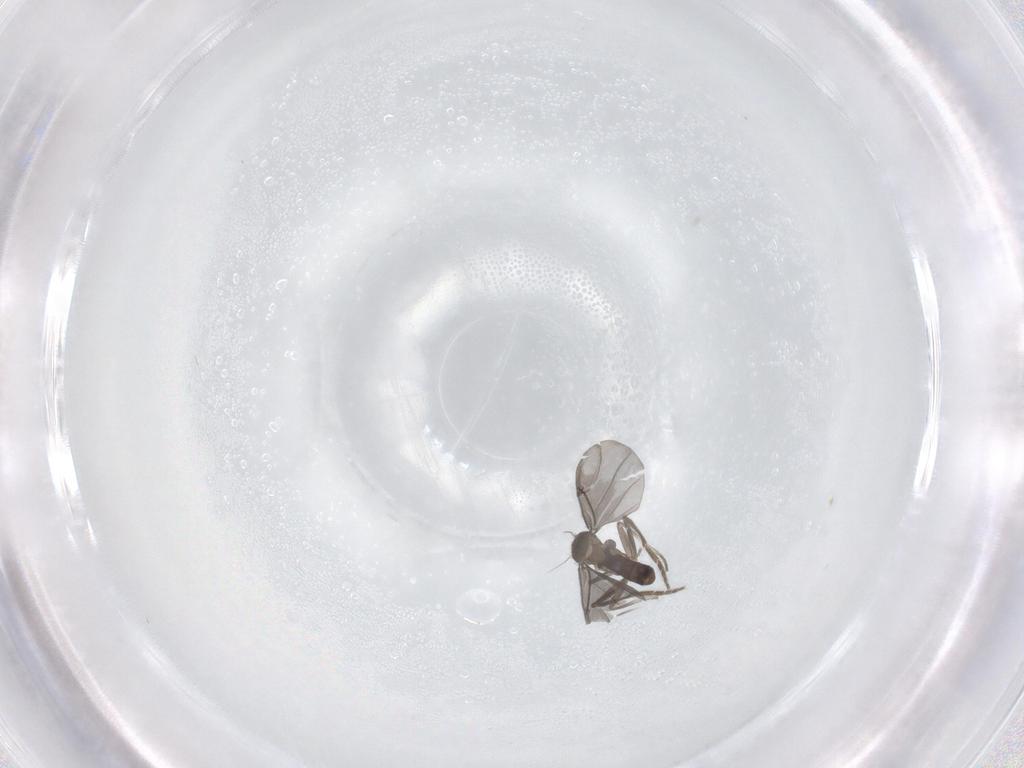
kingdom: Animalia
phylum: Arthropoda
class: Insecta
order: Diptera
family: Phoridae
